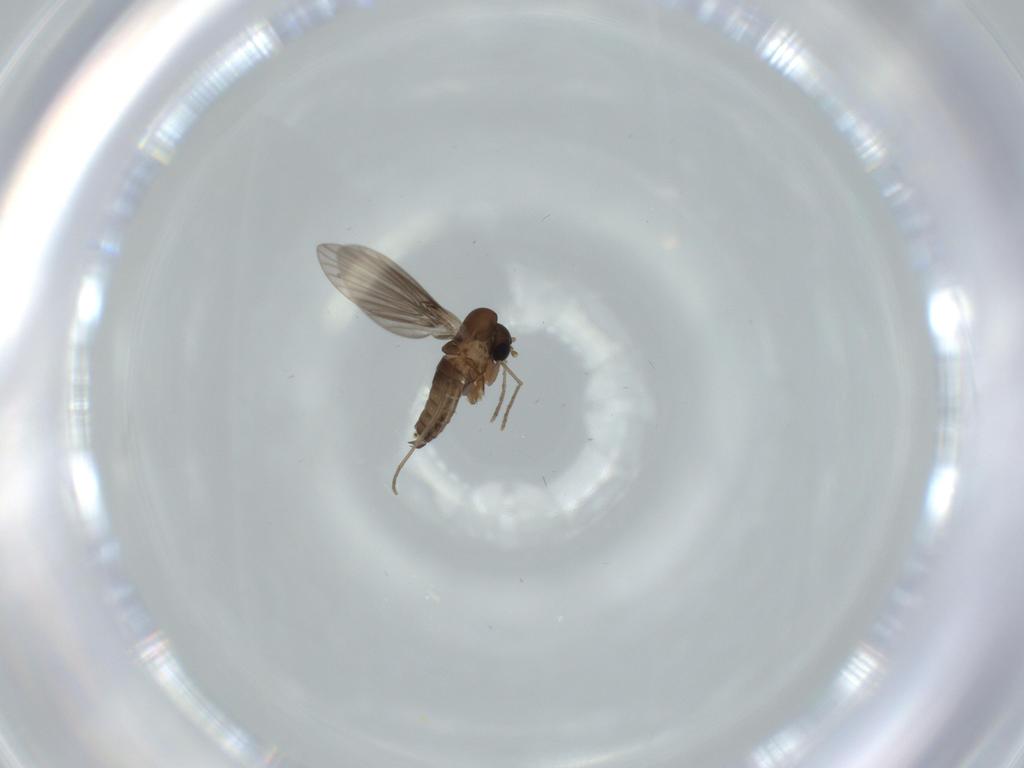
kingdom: Animalia
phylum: Arthropoda
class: Insecta
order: Diptera
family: Psychodidae
